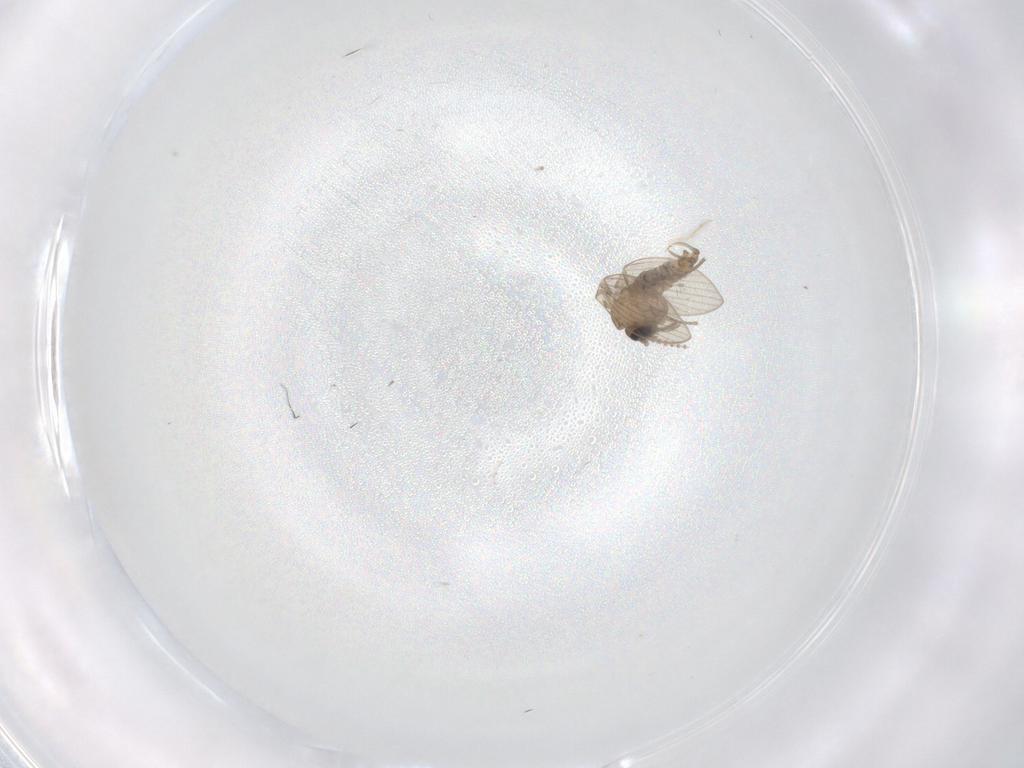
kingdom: Animalia
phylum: Arthropoda
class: Insecta
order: Diptera
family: Psychodidae
